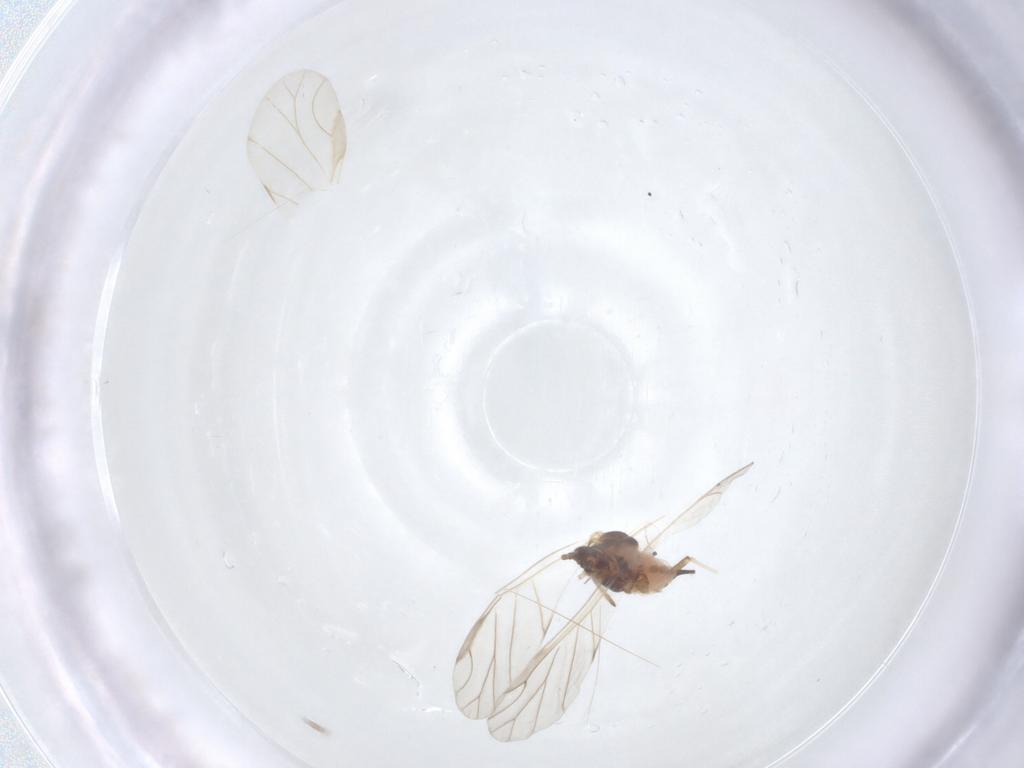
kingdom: Animalia
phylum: Arthropoda
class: Insecta
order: Hemiptera
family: Aphididae
